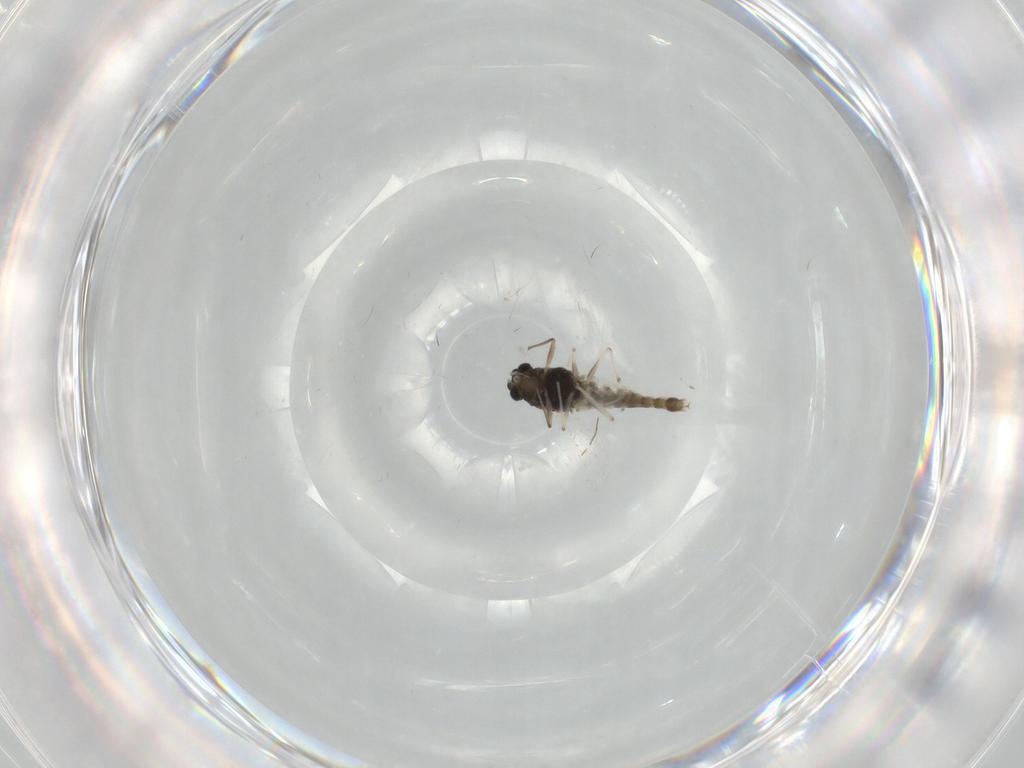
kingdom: Animalia
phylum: Arthropoda
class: Insecta
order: Diptera
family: Chironomidae
